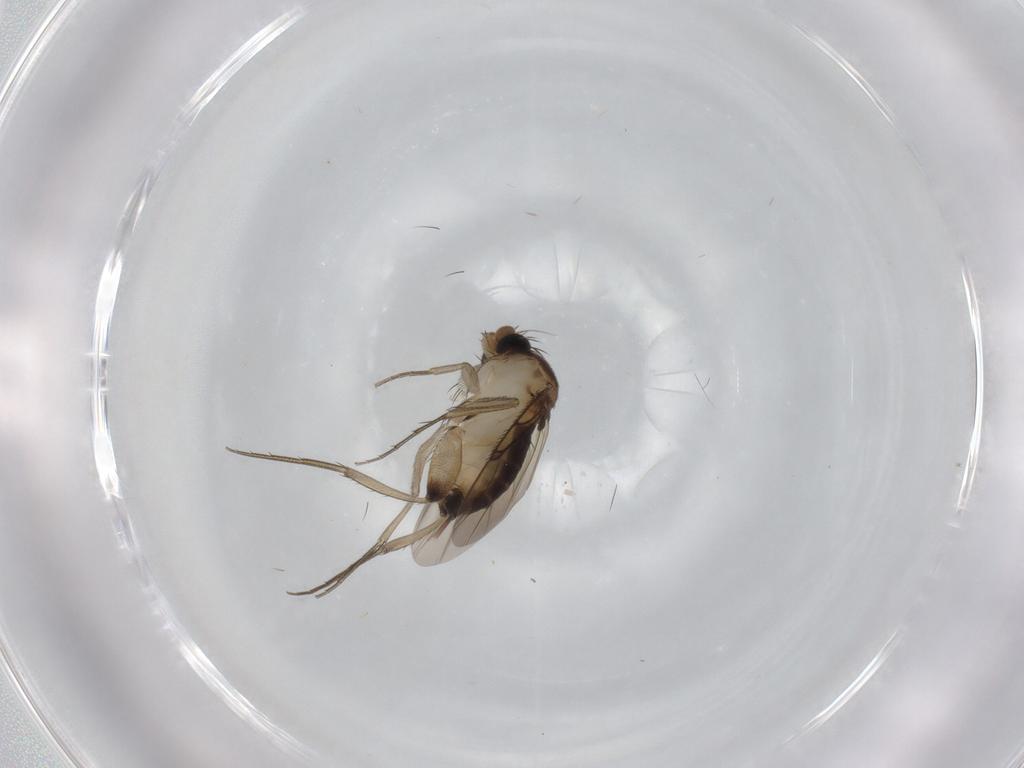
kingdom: Animalia
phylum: Arthropoda
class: Insecta
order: Diptera
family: Phoridae
